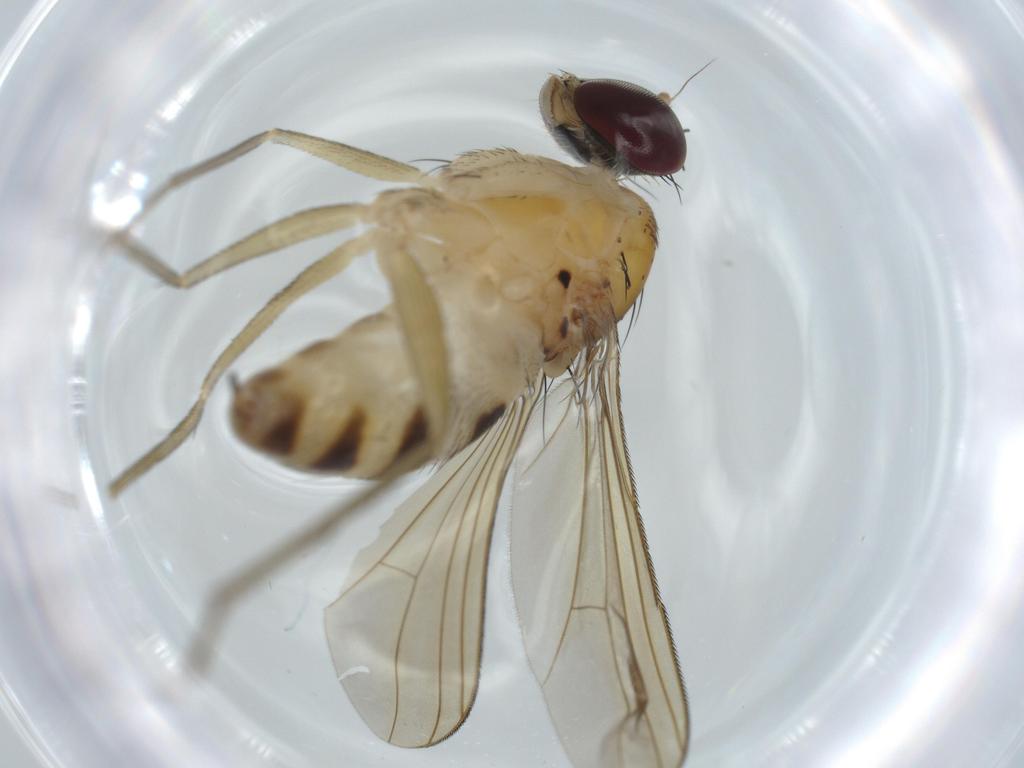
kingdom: Animalia
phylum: Arthropoda
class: Insecta
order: Diptera
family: Dolichopodidae
